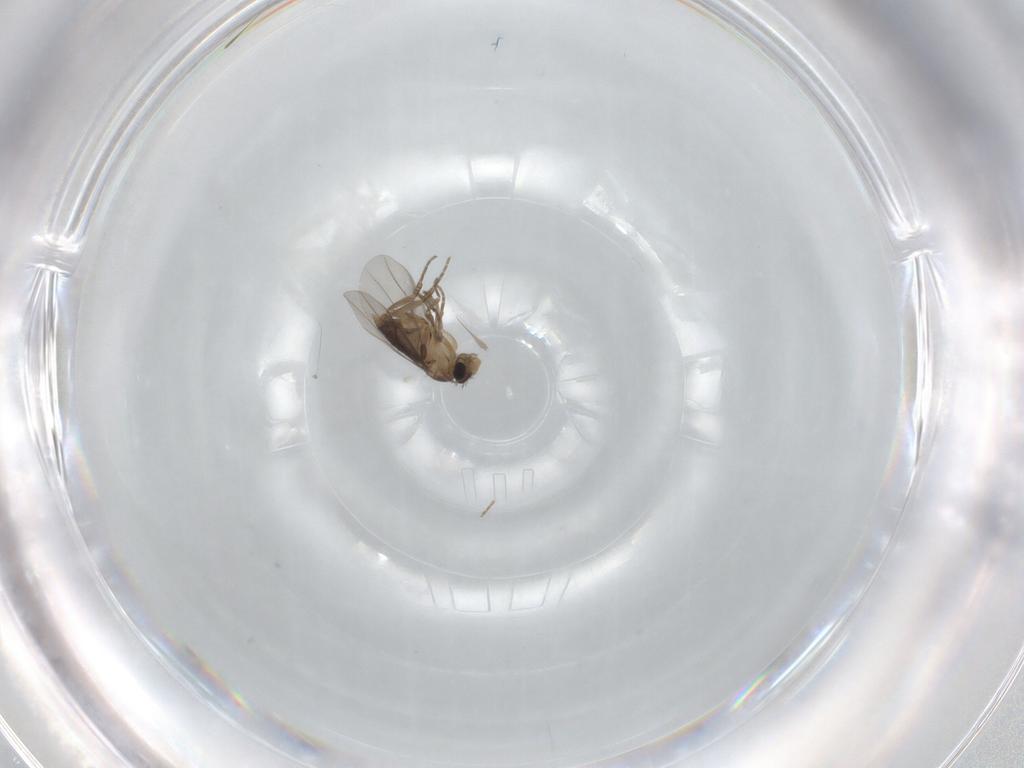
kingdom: Animalia
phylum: Arthropoda
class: Insecta
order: Diptera
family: Cecidomyiidae
